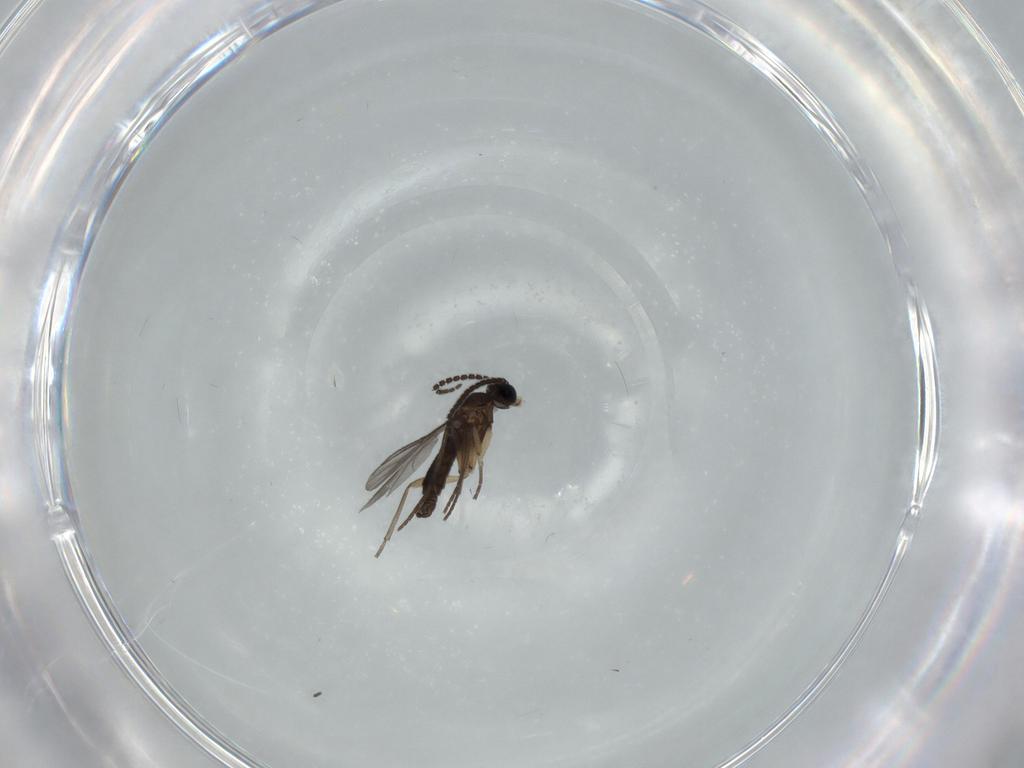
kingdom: Animalia
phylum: Arthropoda
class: Insecta
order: Diptera
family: Sciaridae
